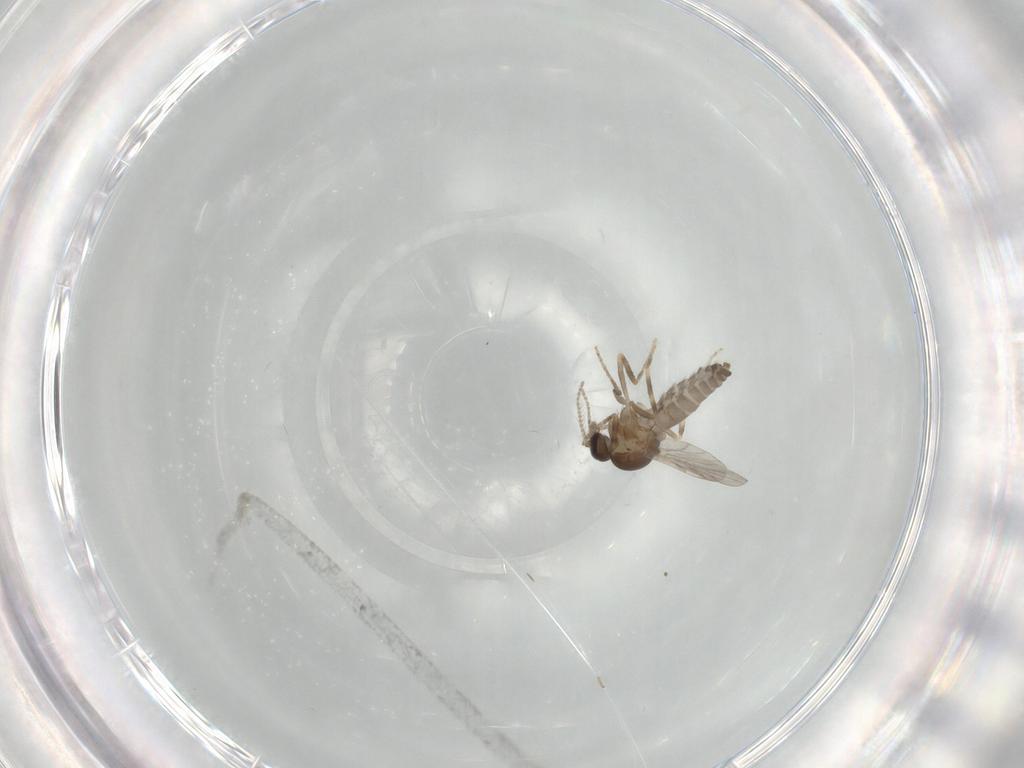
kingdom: Animalia
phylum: Arthropoda
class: Insecta
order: Diptera
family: Ceratopogonidae
